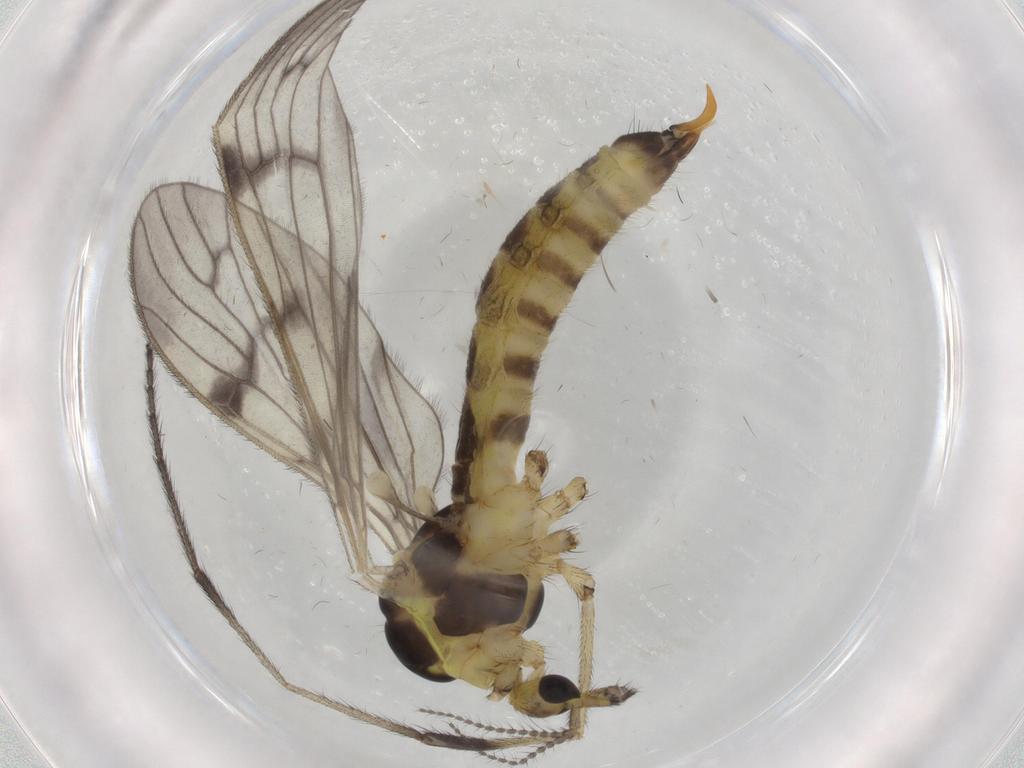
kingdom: Animalia
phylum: Arthropoda
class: Insecta
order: Diptera
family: Limoniidae
